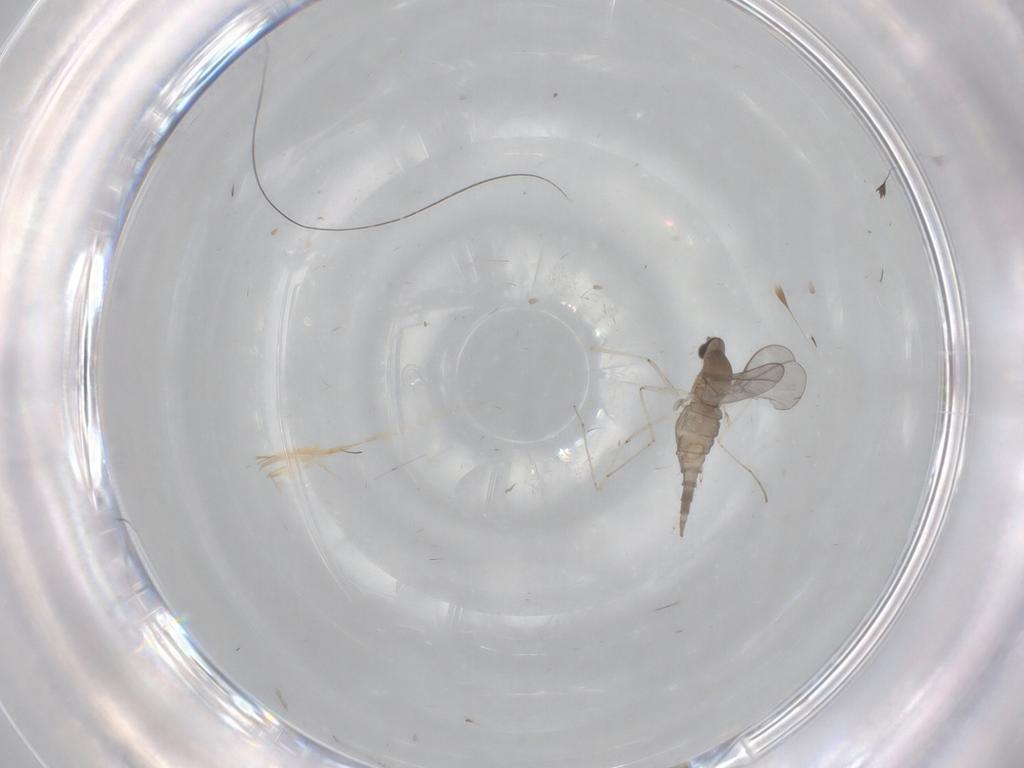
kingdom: Animalia
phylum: Arthropoda
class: Insecta
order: Diptera
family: Cecidomyiidae
